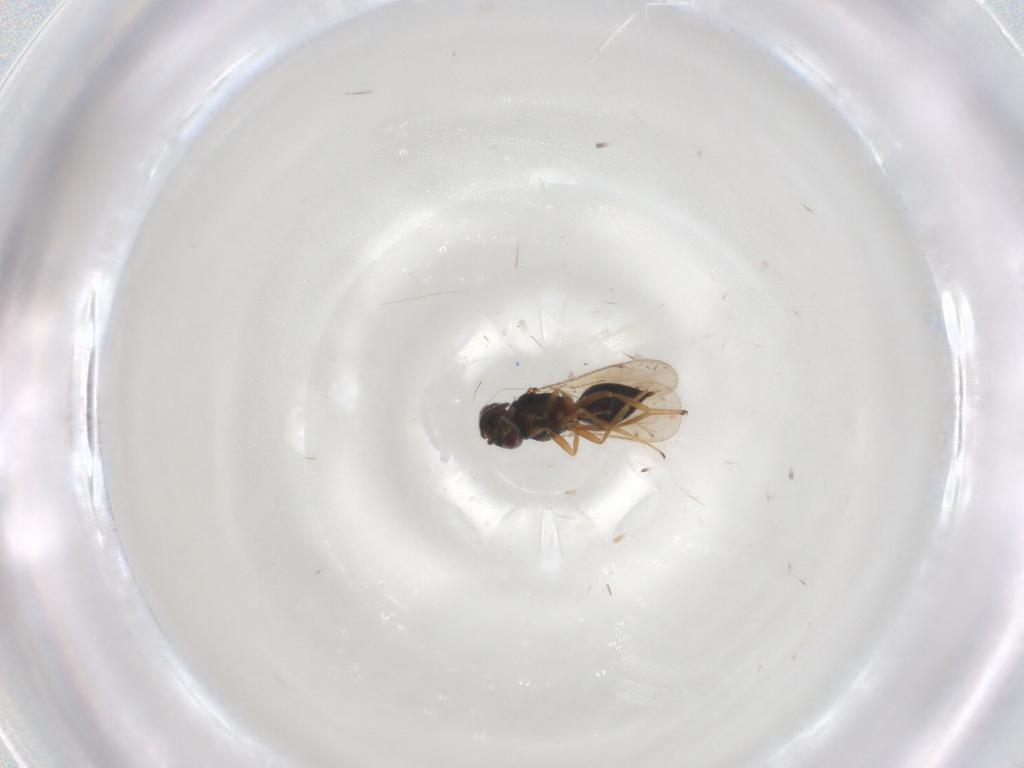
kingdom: Animalia
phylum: Arthropoda
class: Insecta
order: Hymenoptera
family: Tetracampidae
